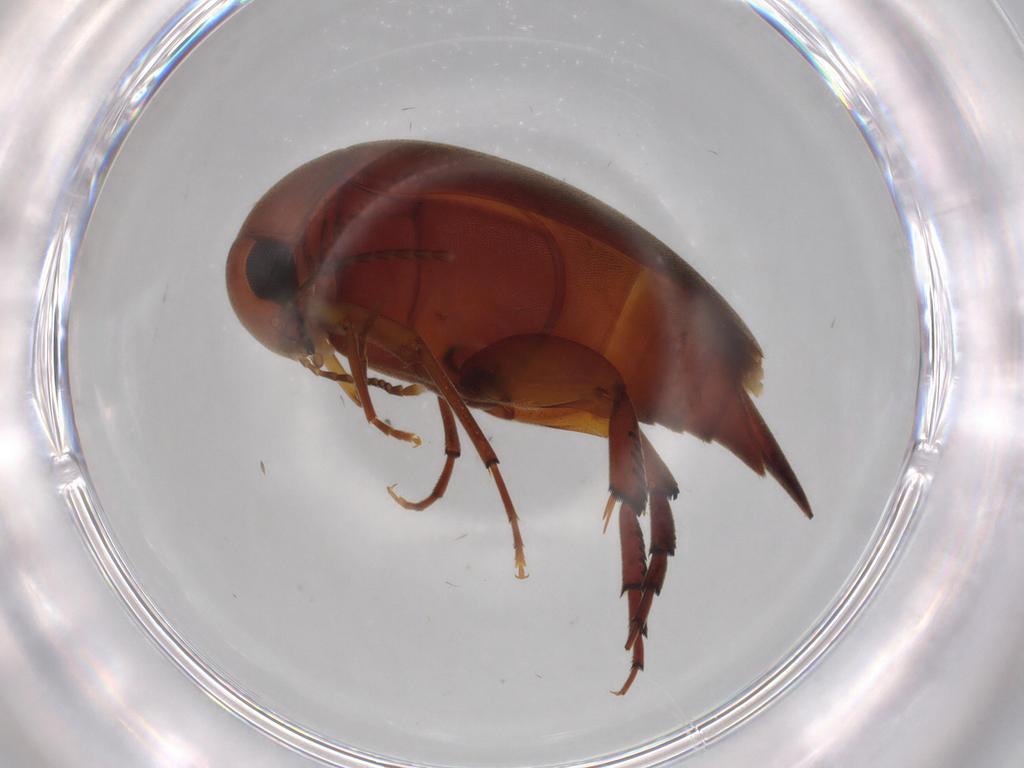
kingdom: Animalia
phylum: Arthropoda
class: Insecta
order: Coleoptera
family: Mordellidae
